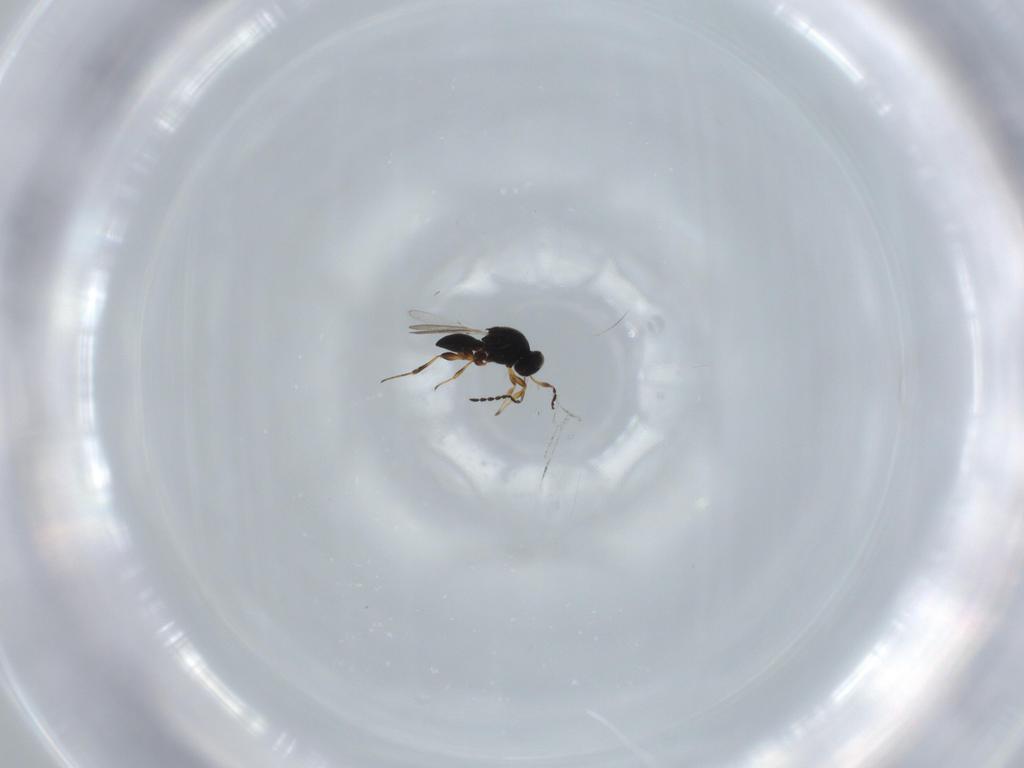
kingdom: Animalia
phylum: Arthropoda
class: Insecta
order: Hymenoptera
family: Platygastridae
